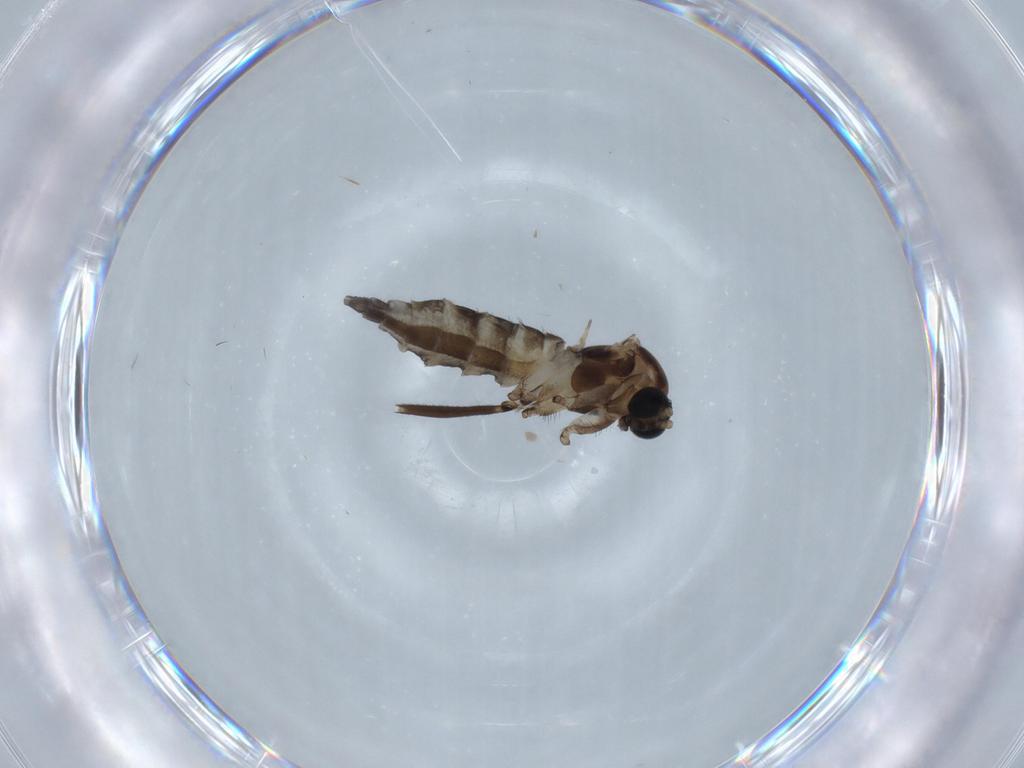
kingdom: Animalia
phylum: Arthropoda
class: Insecta
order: Diptera
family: Sciaridae
